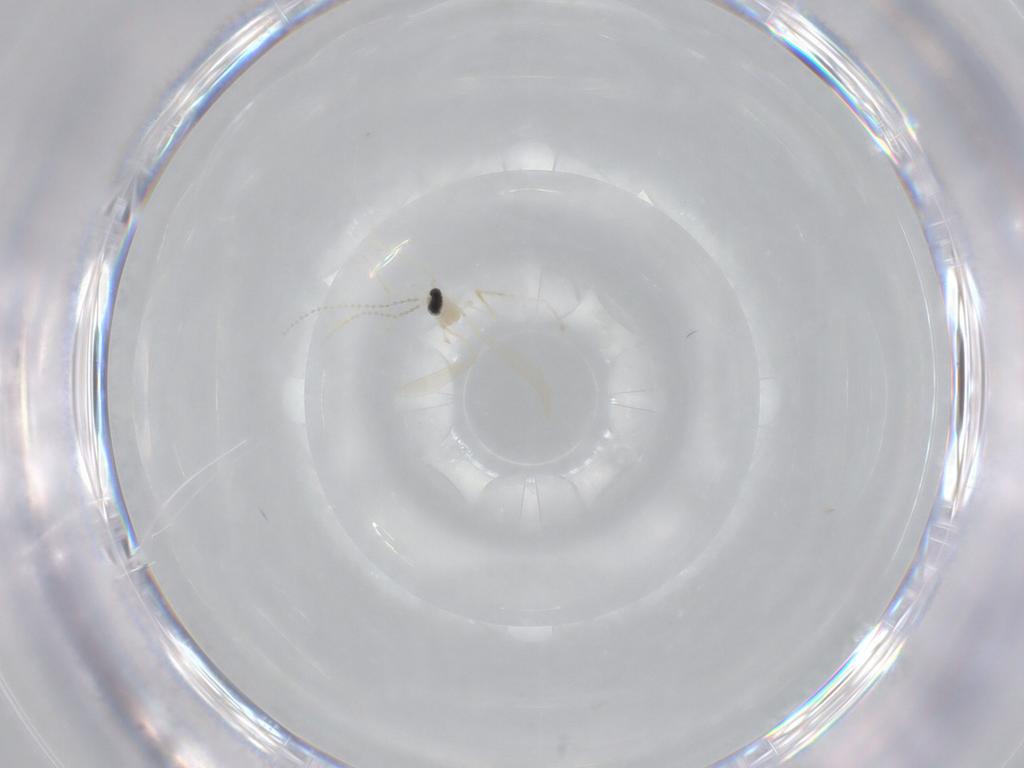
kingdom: Animalia
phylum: Arthropoda
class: Insecta
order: Diptera
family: Cecidomyiidae
